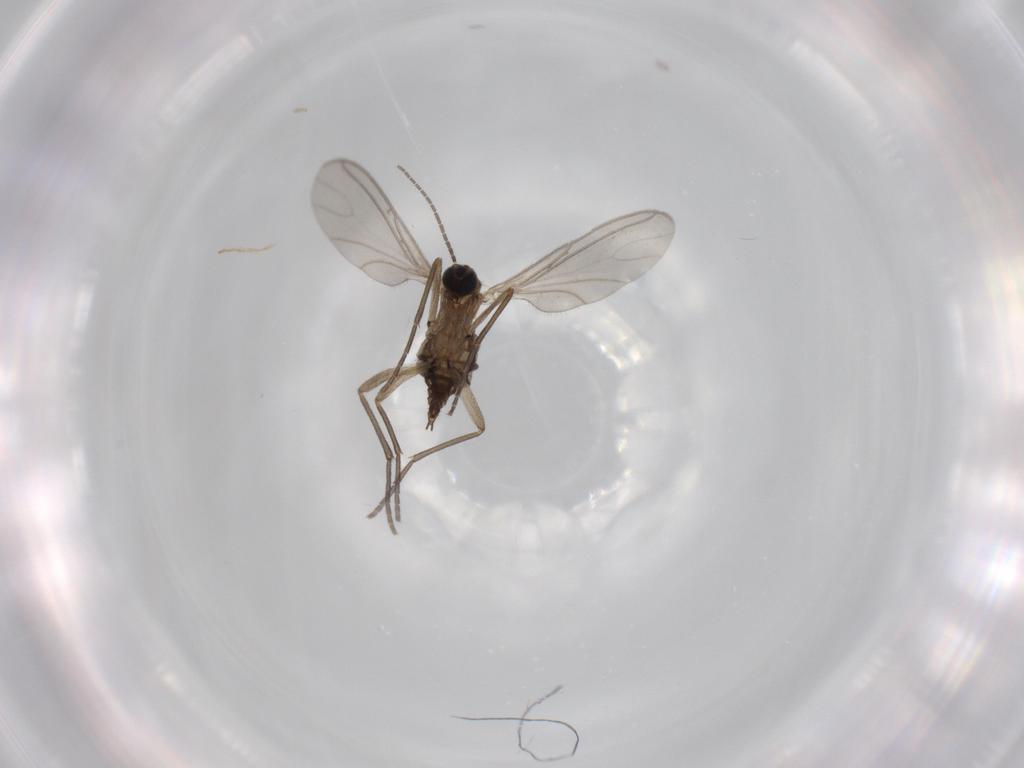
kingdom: Animalia
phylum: Arthropoda
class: Insecta
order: Diptera
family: Sciaridae
